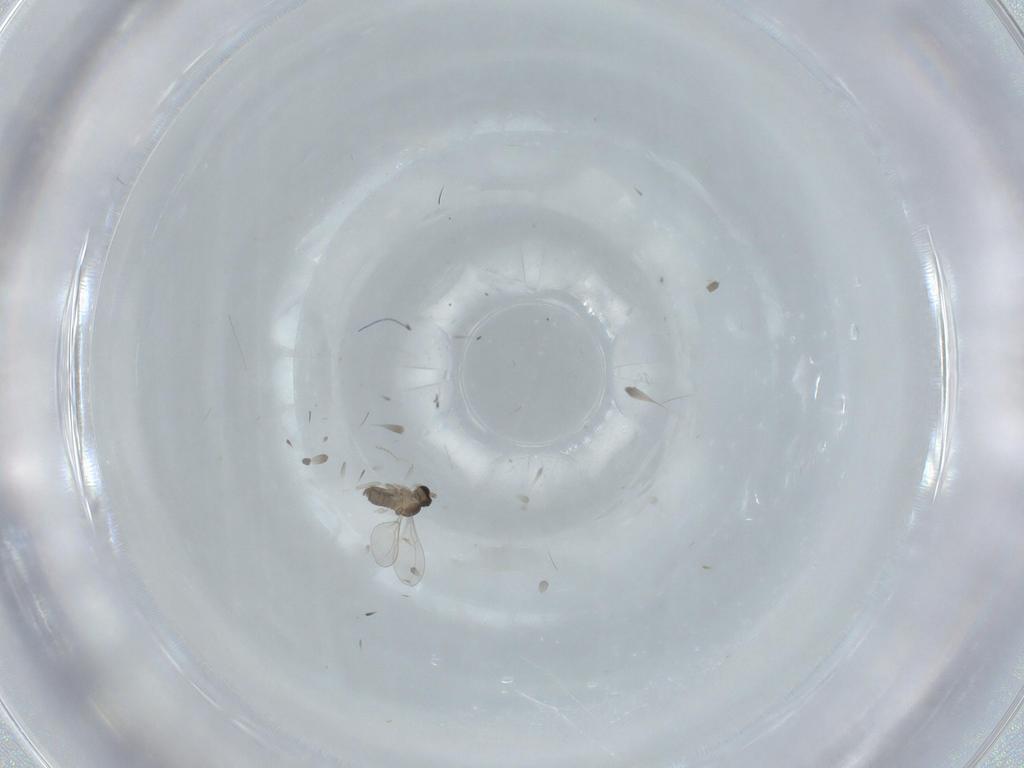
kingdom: Animalia
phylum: Arthropoda
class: Insecta
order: Diptera
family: Cecidomyiidae
